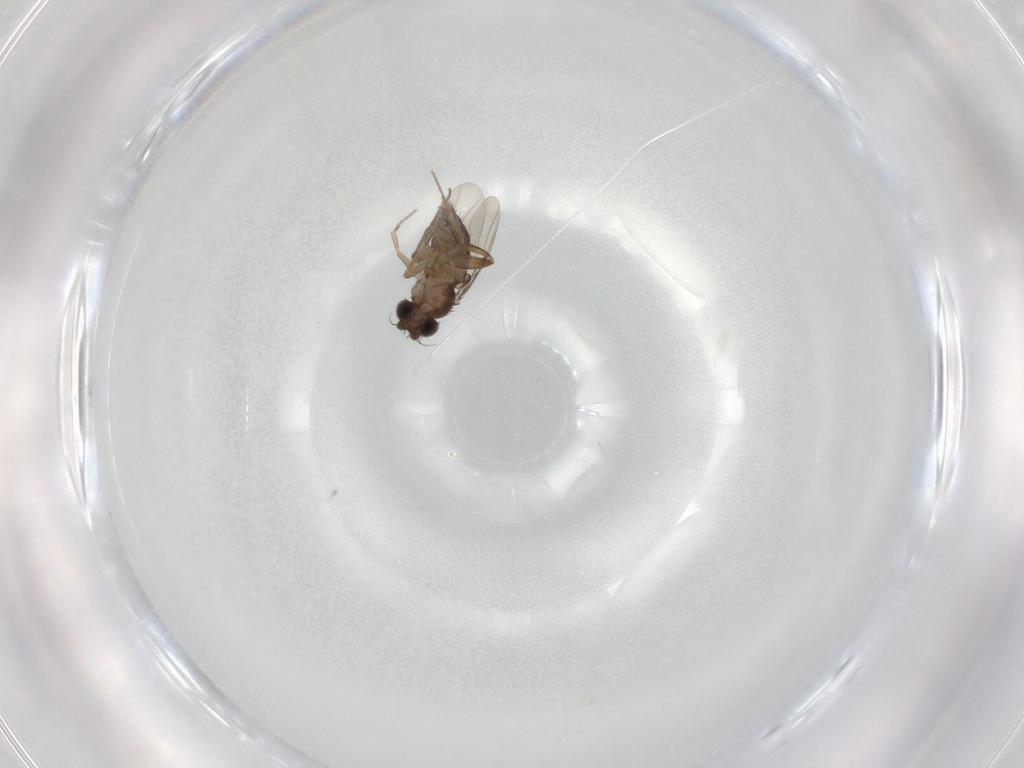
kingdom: Animalia
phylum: Arthropoda
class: Insecta
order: Diptera
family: Phoridae
